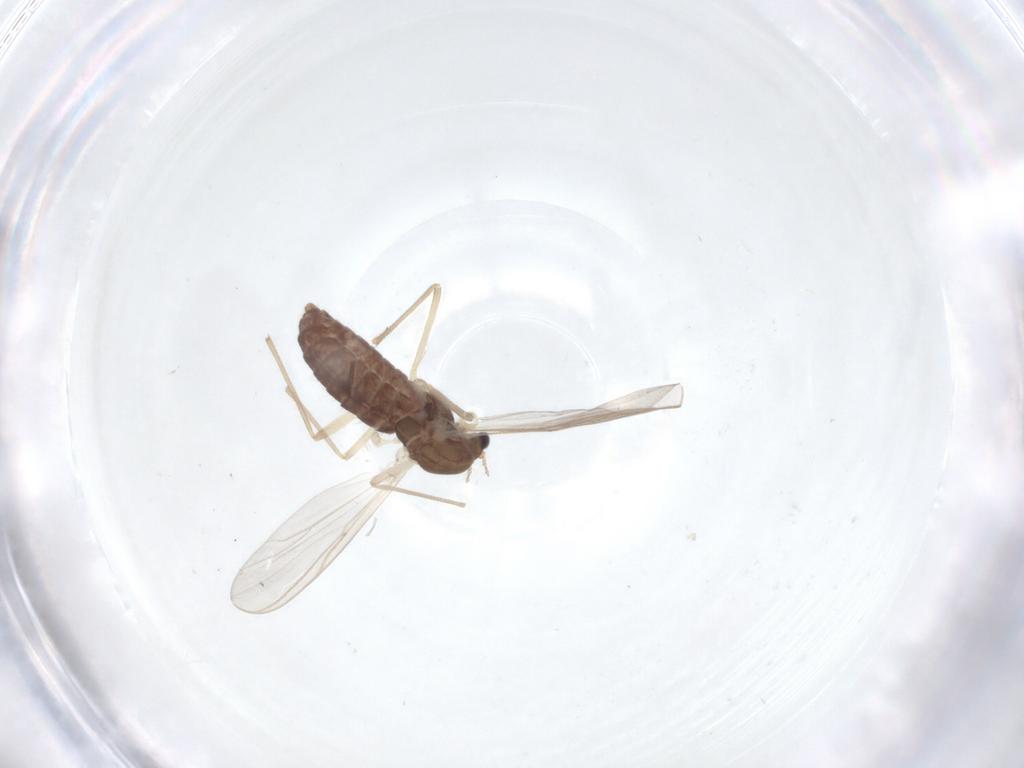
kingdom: Animalia
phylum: Arthropoda
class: Insecta
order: Diptera
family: Chironomidae
